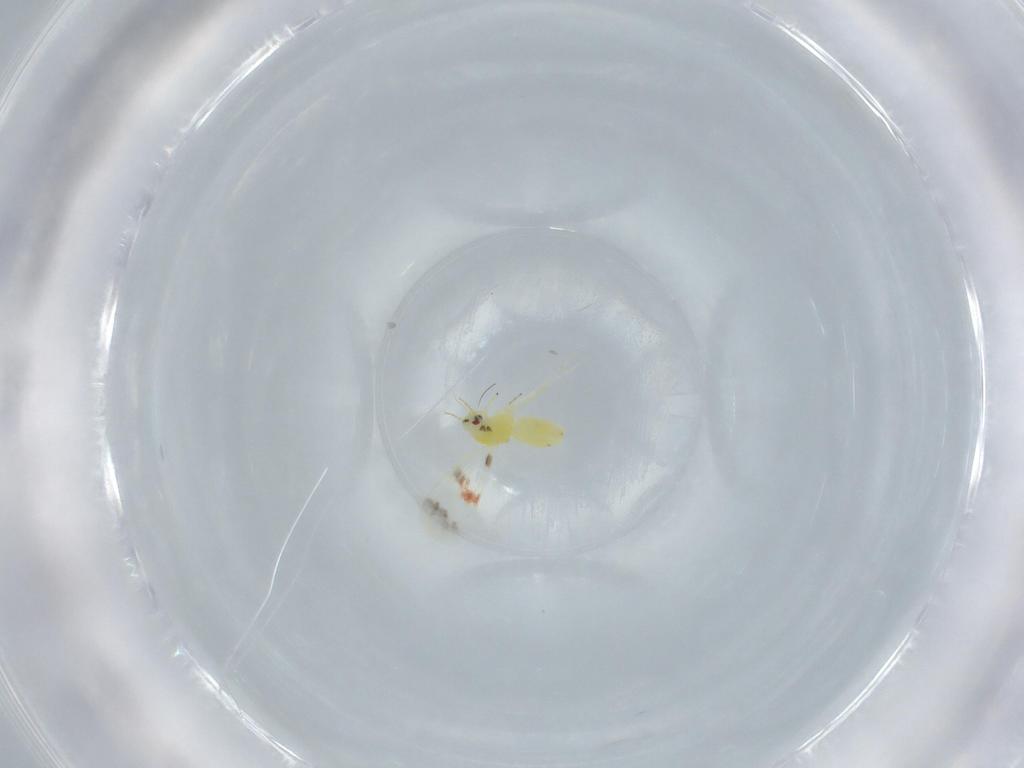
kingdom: Animalia
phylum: Arthropoda
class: Insecta
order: Hemiptera
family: Aleyrodidae
